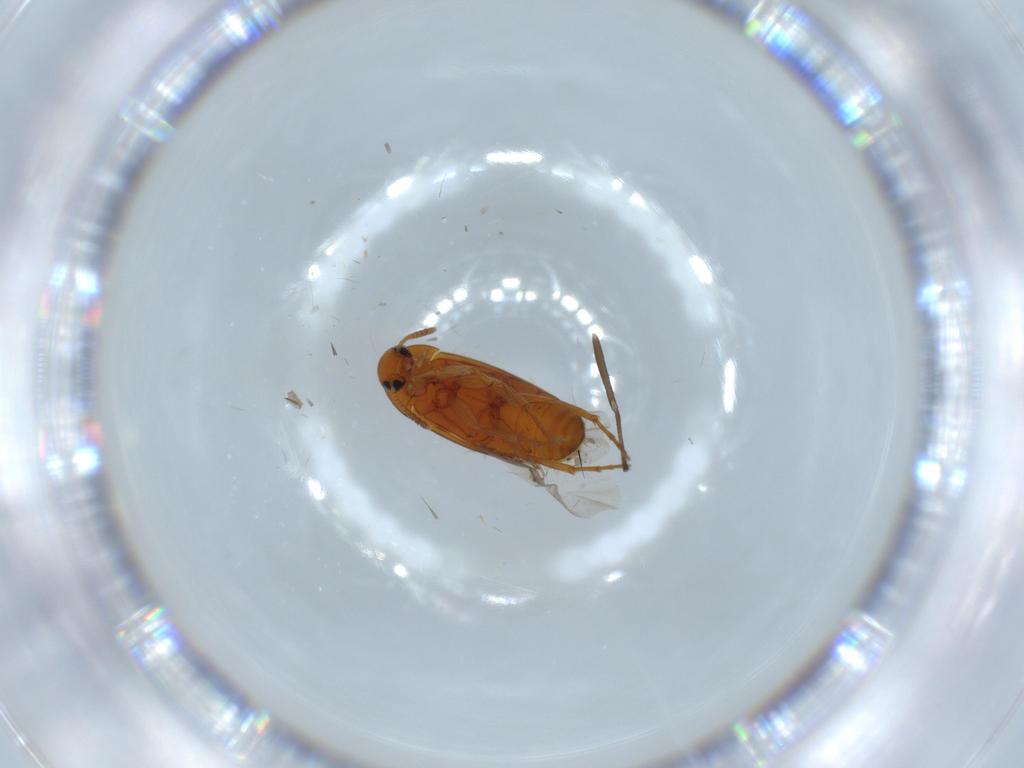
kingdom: Animalia
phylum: Arthropoda
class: Insecta
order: Coleoptera
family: Scraptiidae
